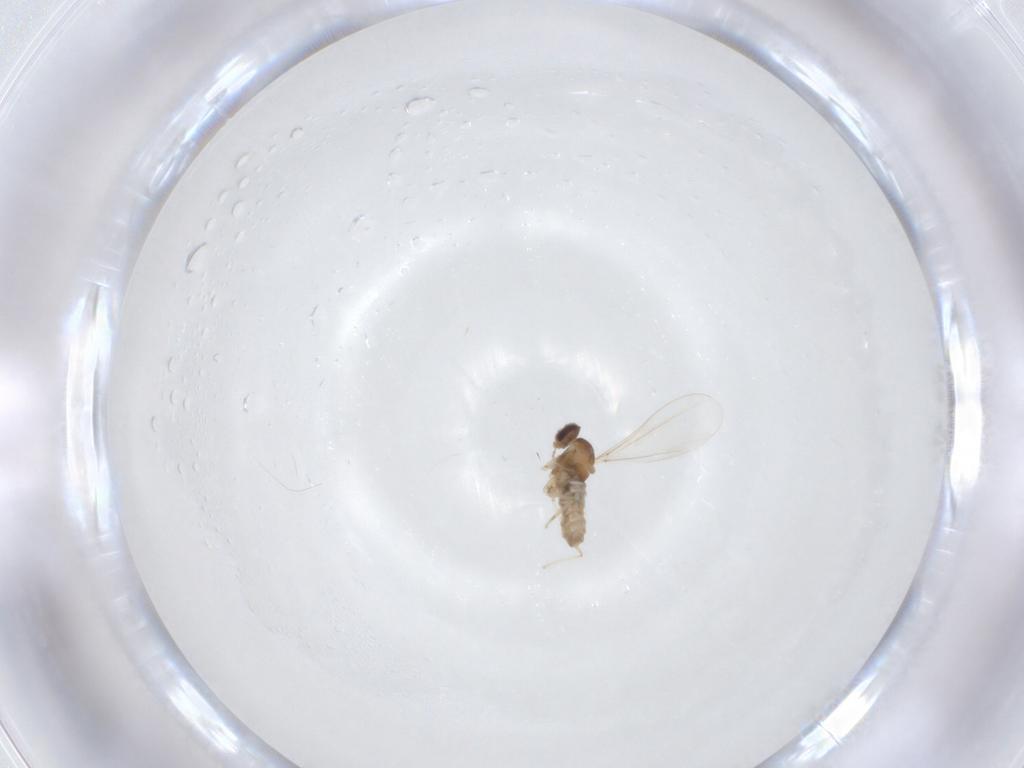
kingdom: Animalia
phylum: Arthropoda
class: Insecta
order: Diptera
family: Cecidomyiidae
